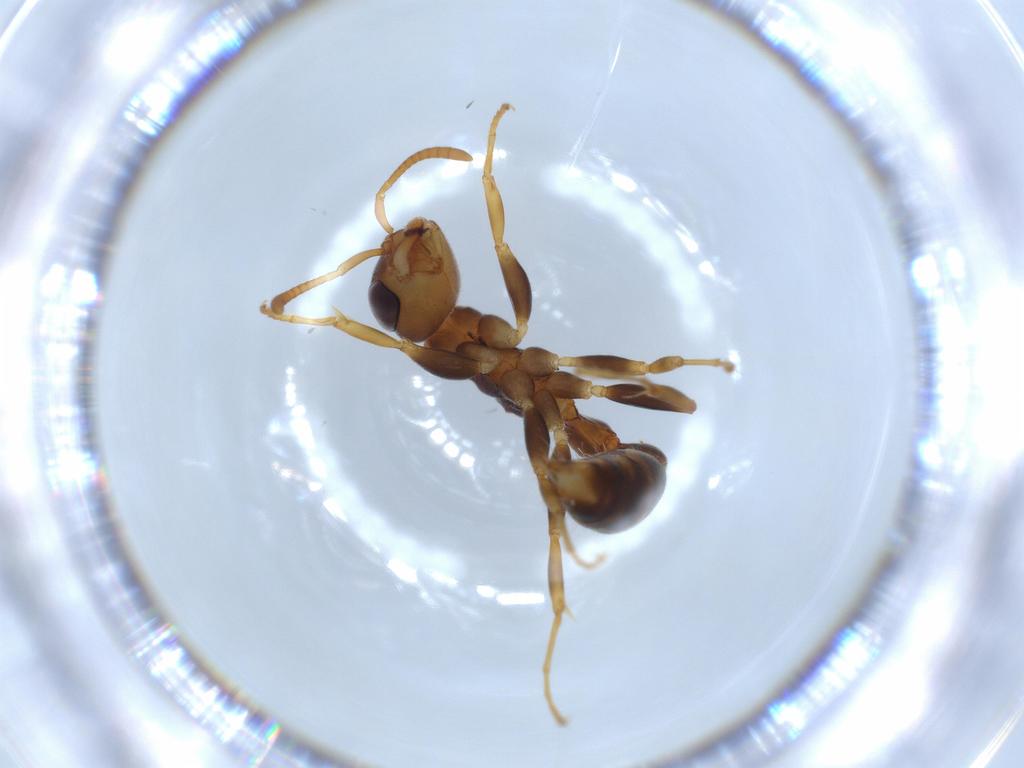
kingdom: Animalia
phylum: Arthropoda
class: Insecta
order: Hymenoptera
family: Formicidae
